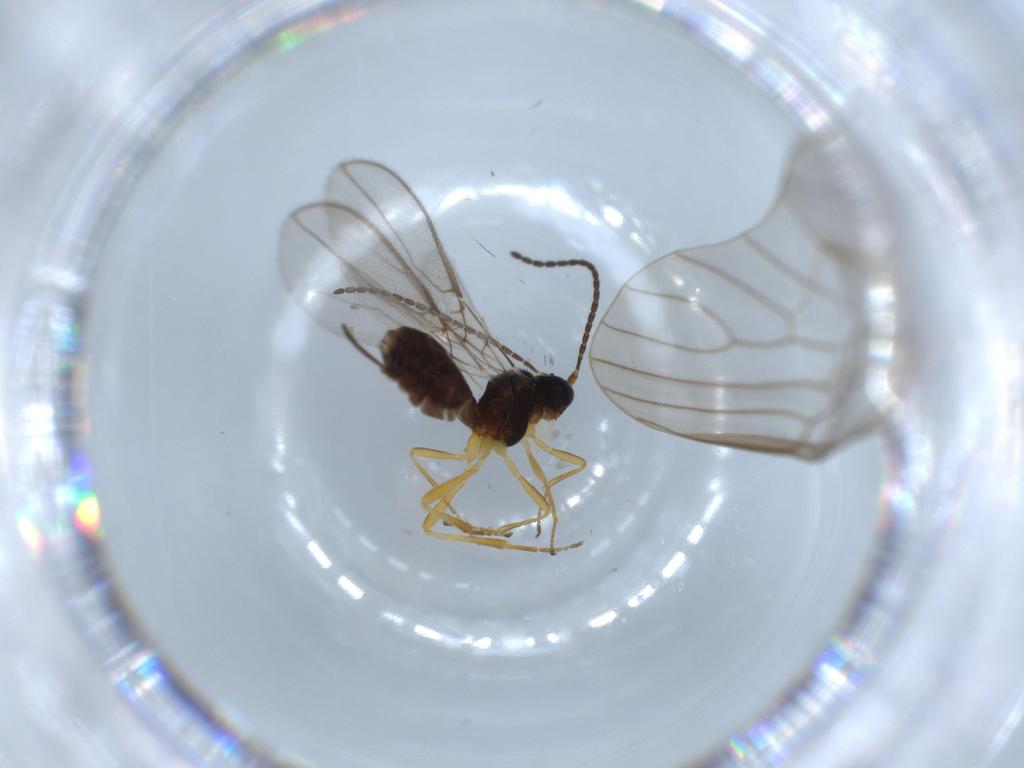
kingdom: Animalia
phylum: Arthropoda
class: Insecta
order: Hymenoptera
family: Braconidae
